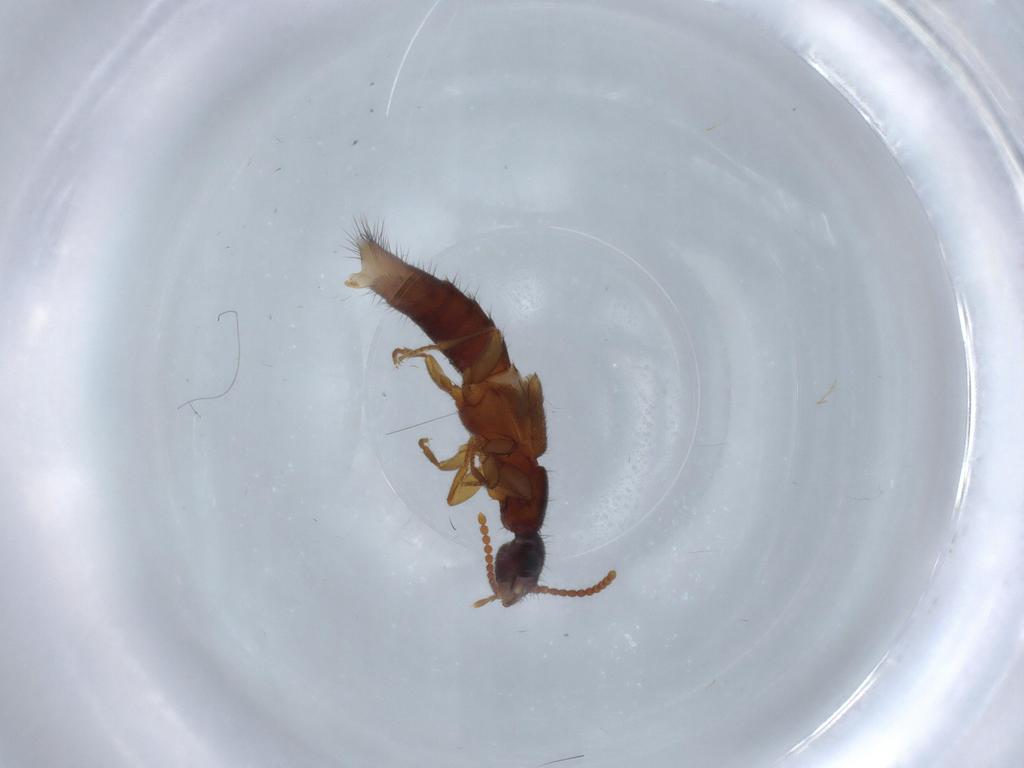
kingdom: Animalia
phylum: Arthropoda
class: Insecta
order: Coleoptera
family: Staphylinidae
